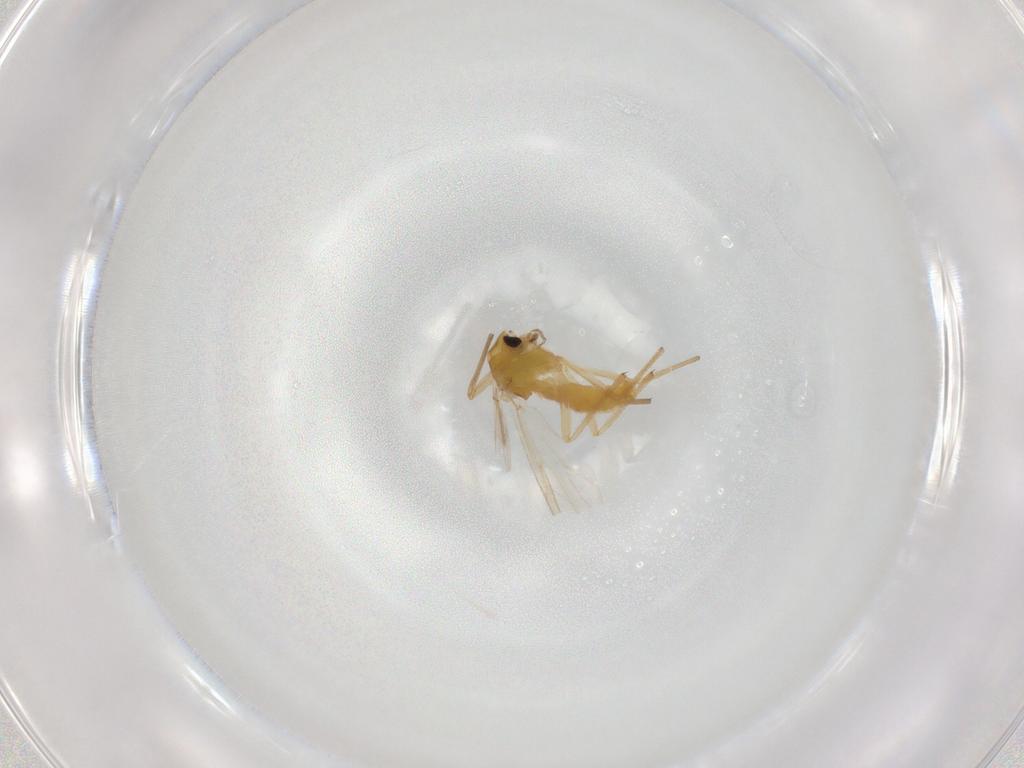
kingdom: Animalia
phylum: Arthropoda
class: Insecta
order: Diptera
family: Chironomidae
